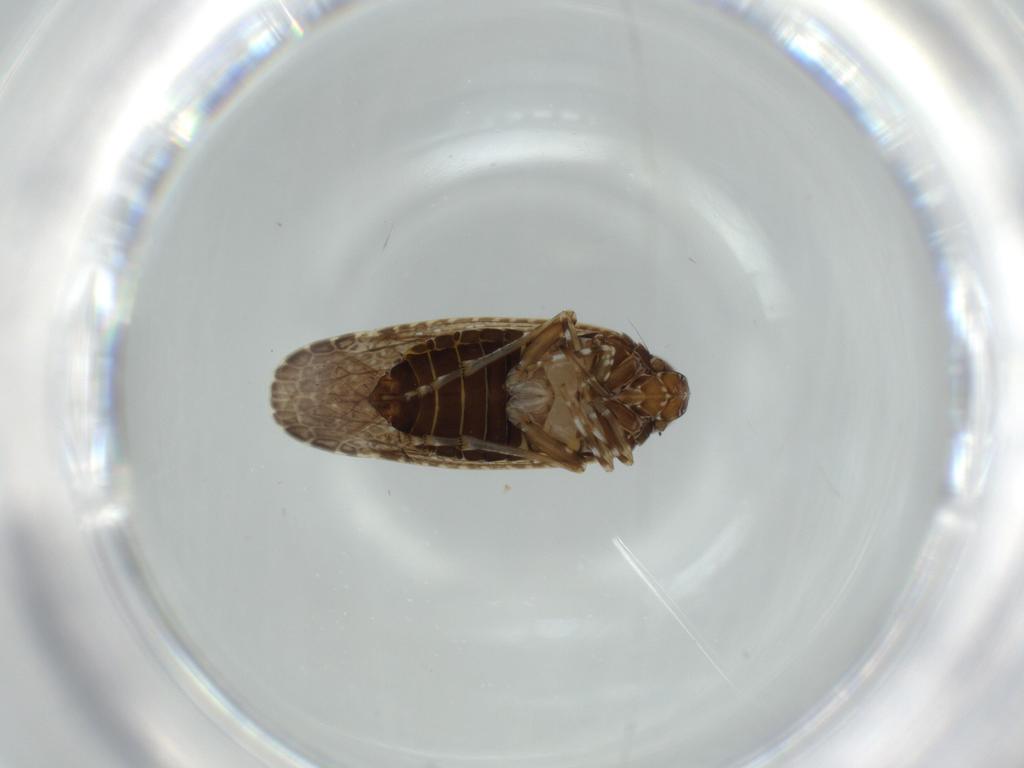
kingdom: Animalia
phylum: Arthropoda
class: Insecta
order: Hemiptera
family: Achilidae
